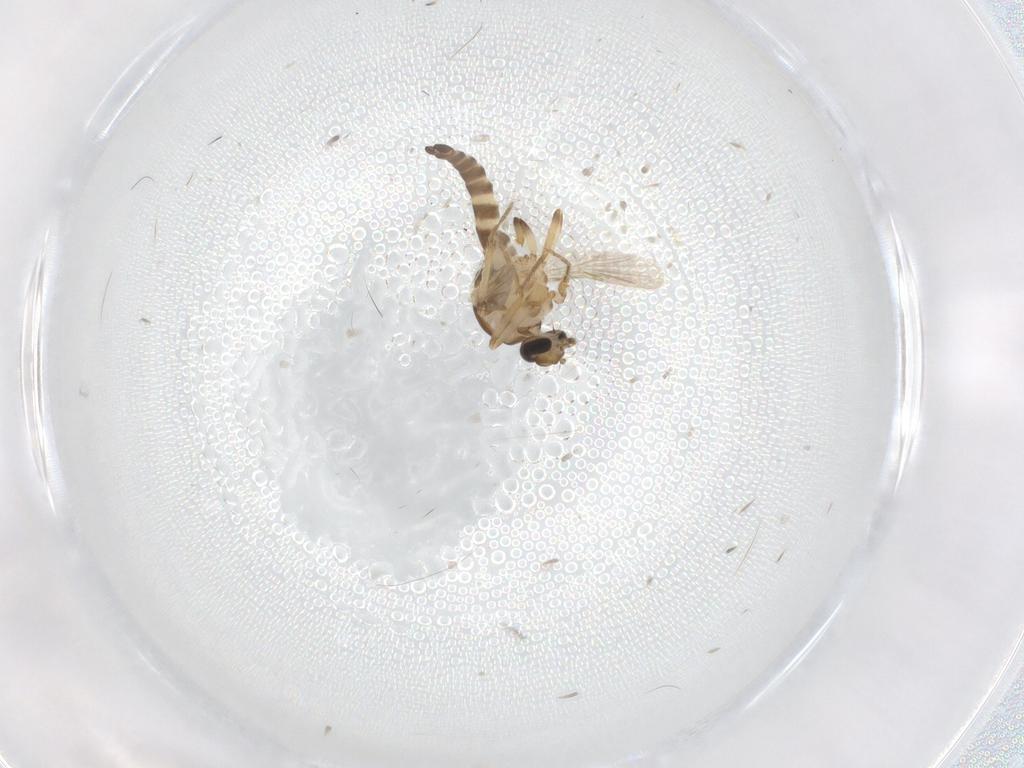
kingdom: Animalia
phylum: Arthropoda
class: Insecta
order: Diptera
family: Cecidomyiidae
